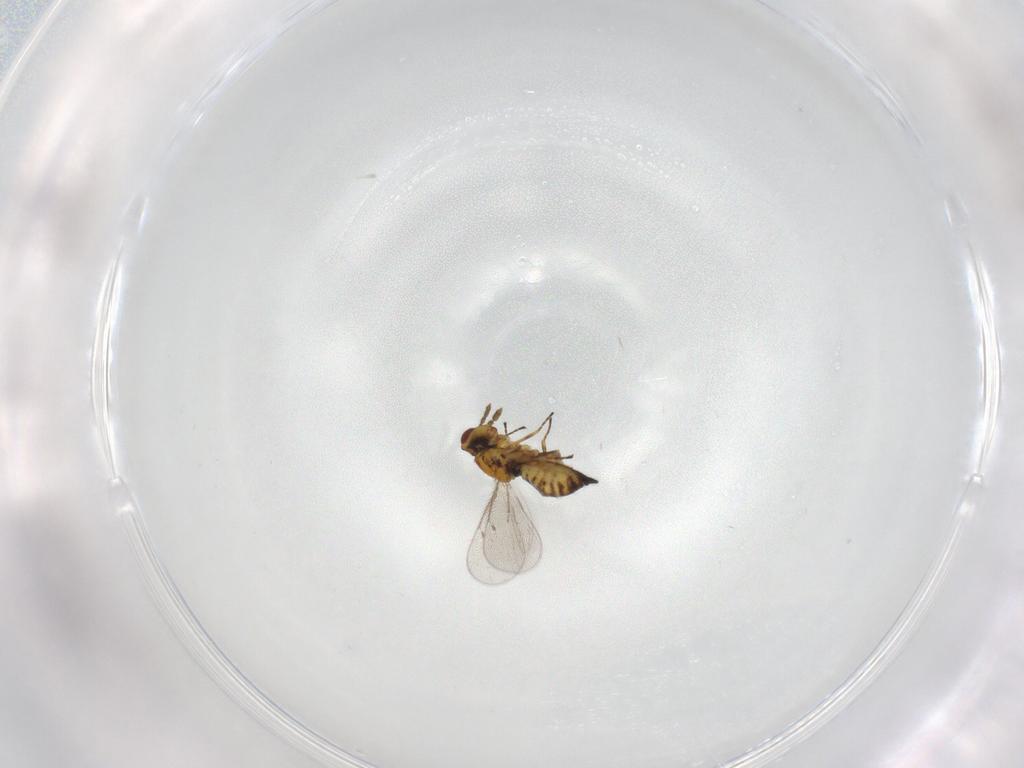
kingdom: Animalia
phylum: Arthropoda
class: Insecta
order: Hymenoptera
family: Eulophidae
